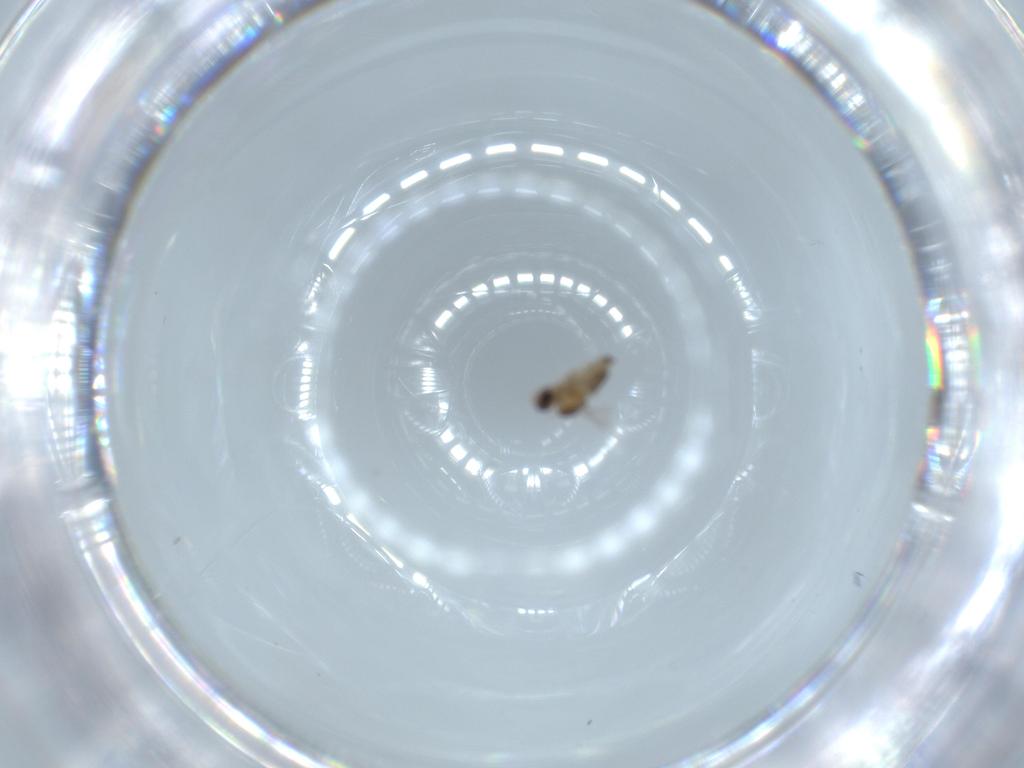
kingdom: Animalia
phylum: Arthropoda
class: Insecta
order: Diptera
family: Cecidomyiidae
